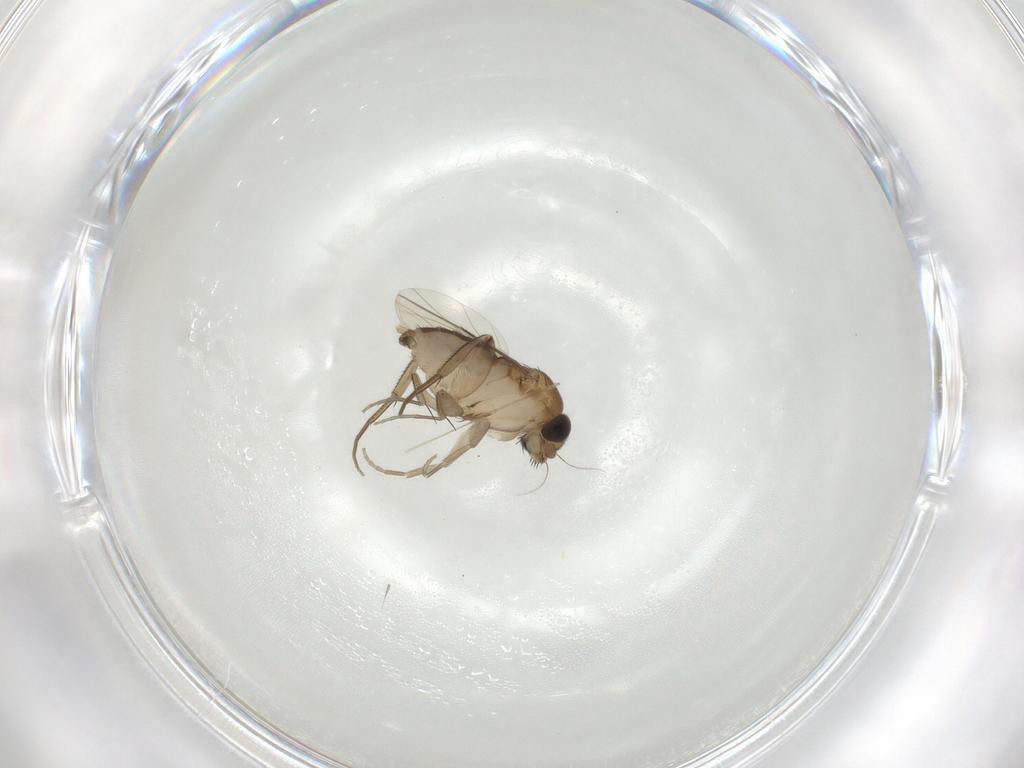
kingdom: Animalia
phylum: Arthropoda
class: Insecta
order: Diptera
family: Phoridae
